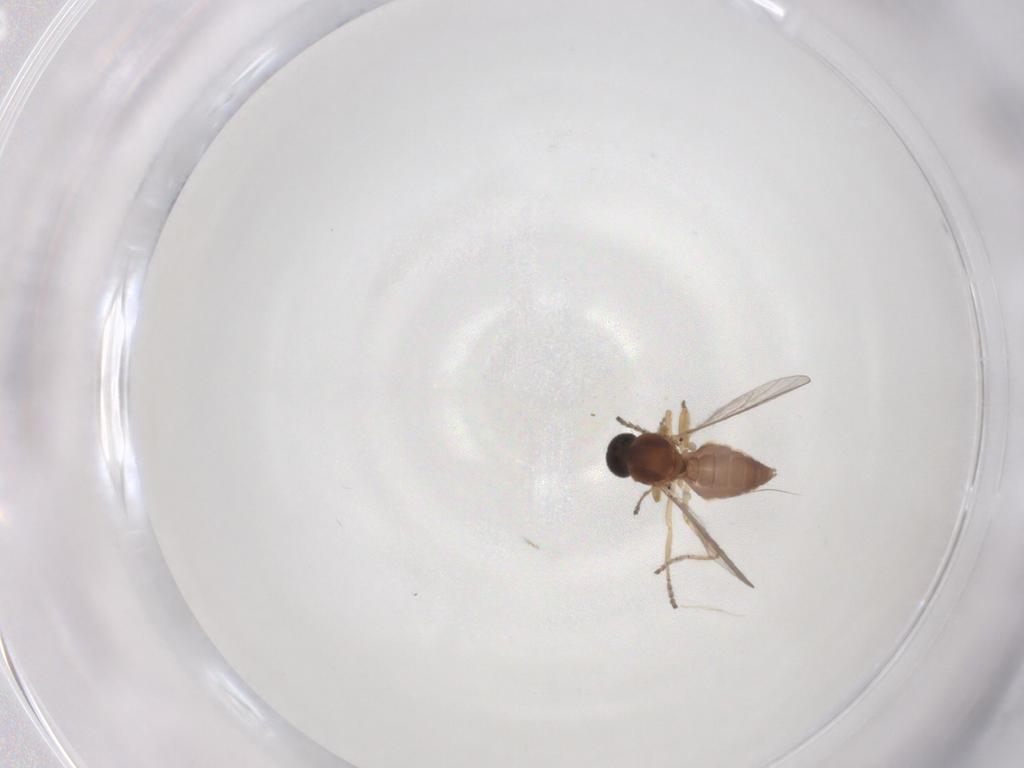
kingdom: Animalia
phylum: Arthropoda
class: Insecta
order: Diptera
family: Ceratopogonidae
